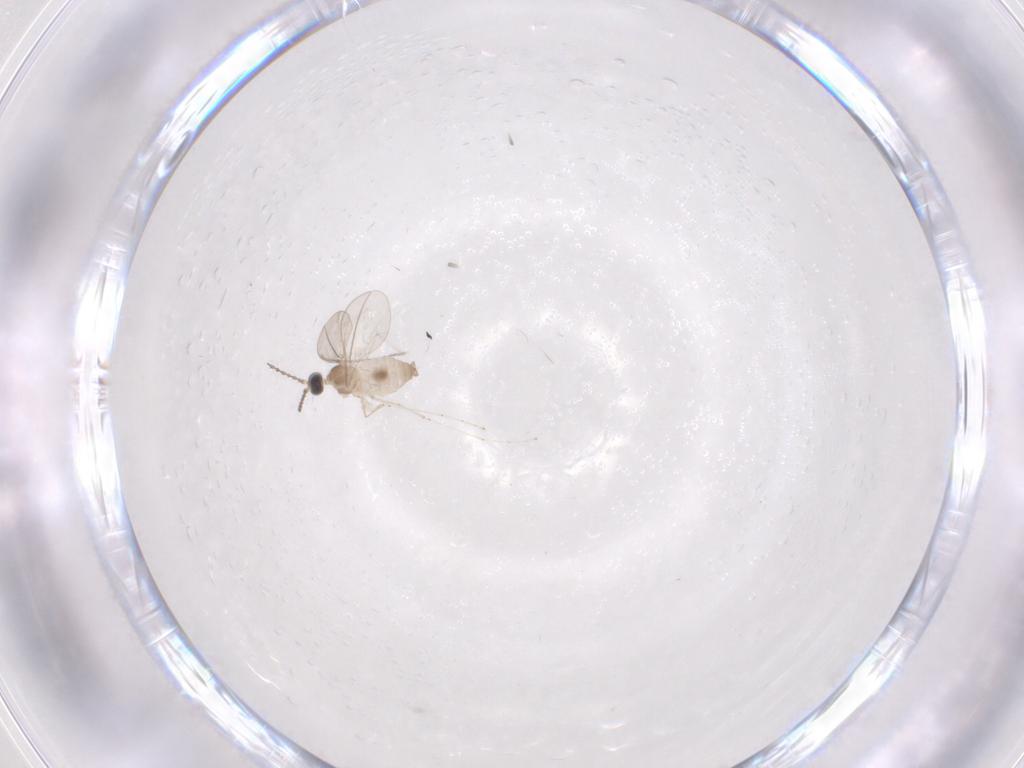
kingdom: Animalia
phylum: Arthropoda
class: Insecta
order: Diptera
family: Cecidomyiidae
